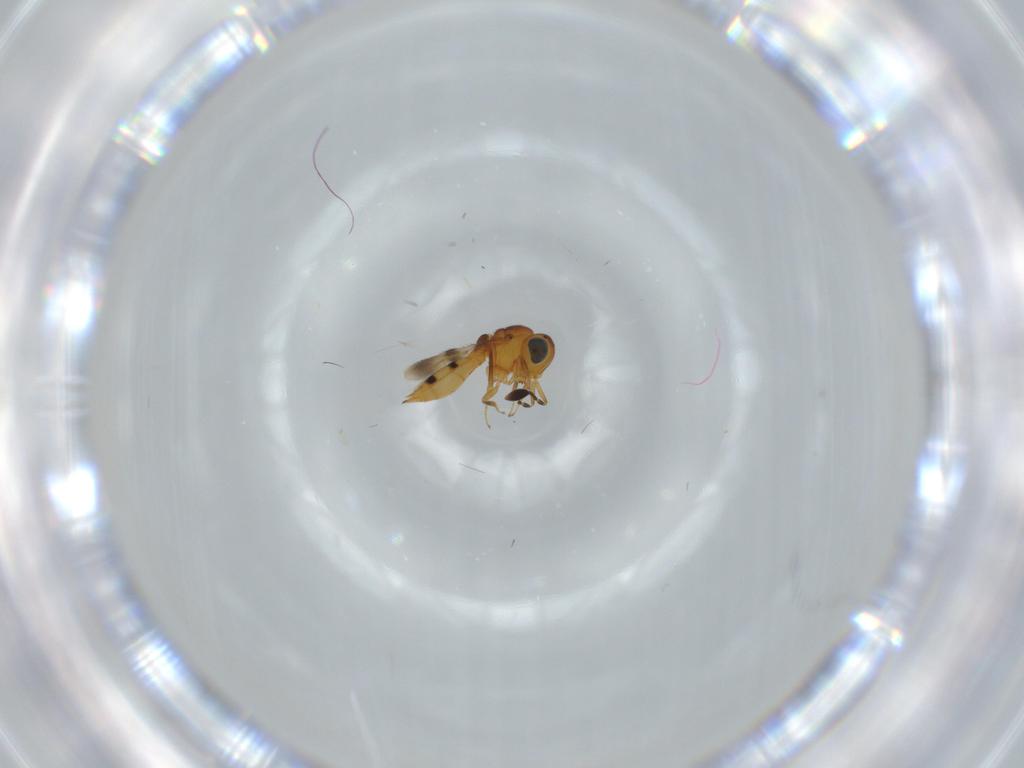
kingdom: Animalia
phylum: Arthropoda
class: Insecta
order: Hymenoptera
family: Scelionidae
